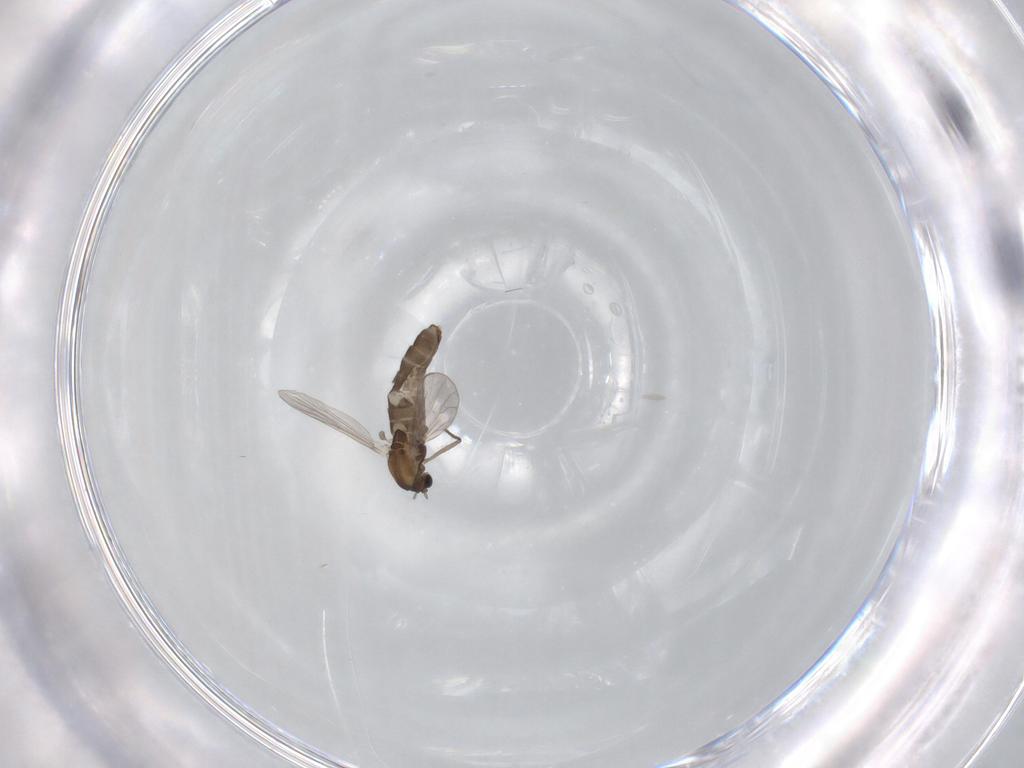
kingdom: Animalia
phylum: Arthropoda
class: Insecta
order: Diptera
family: Chironomidae
